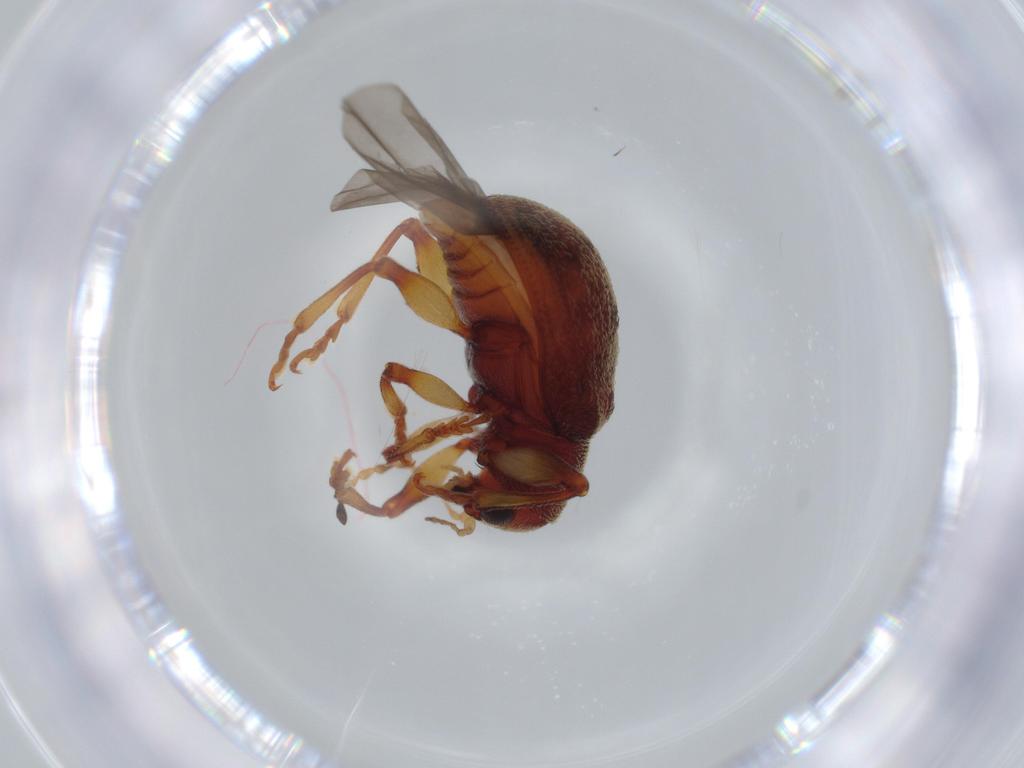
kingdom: Animalia
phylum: Arthropoda
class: Insecta
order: Coleoptera
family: Chrysomelidae
